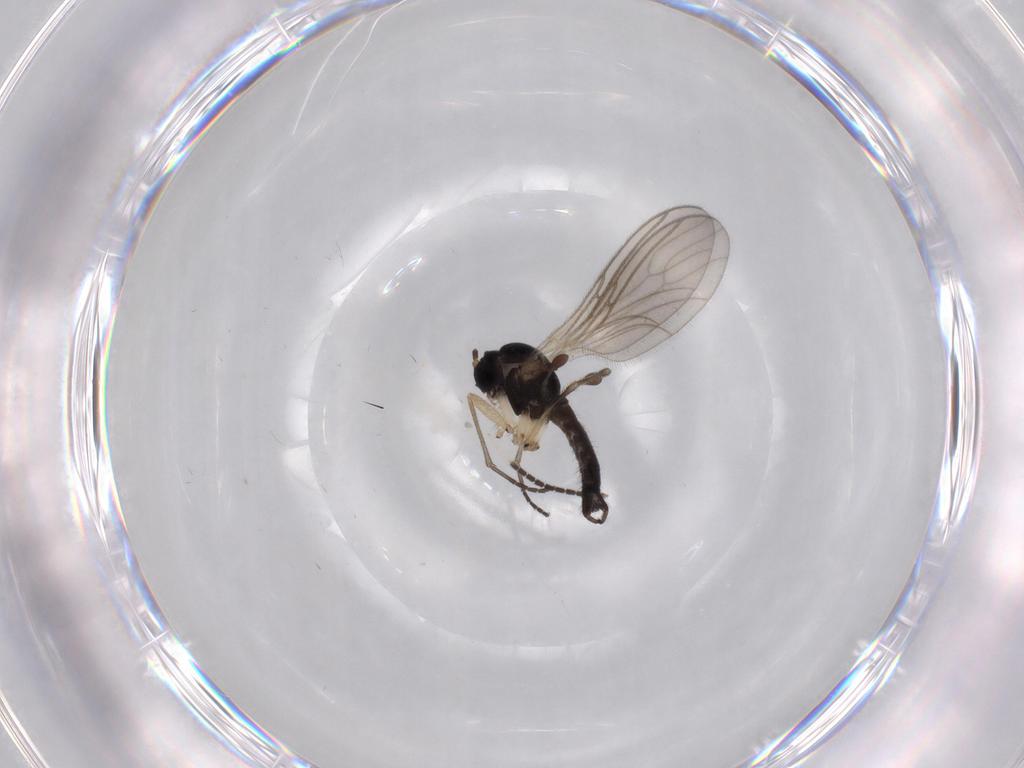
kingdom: Animalia
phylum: Arthropoda
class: Insecta
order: Diptera
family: Sciaridae
